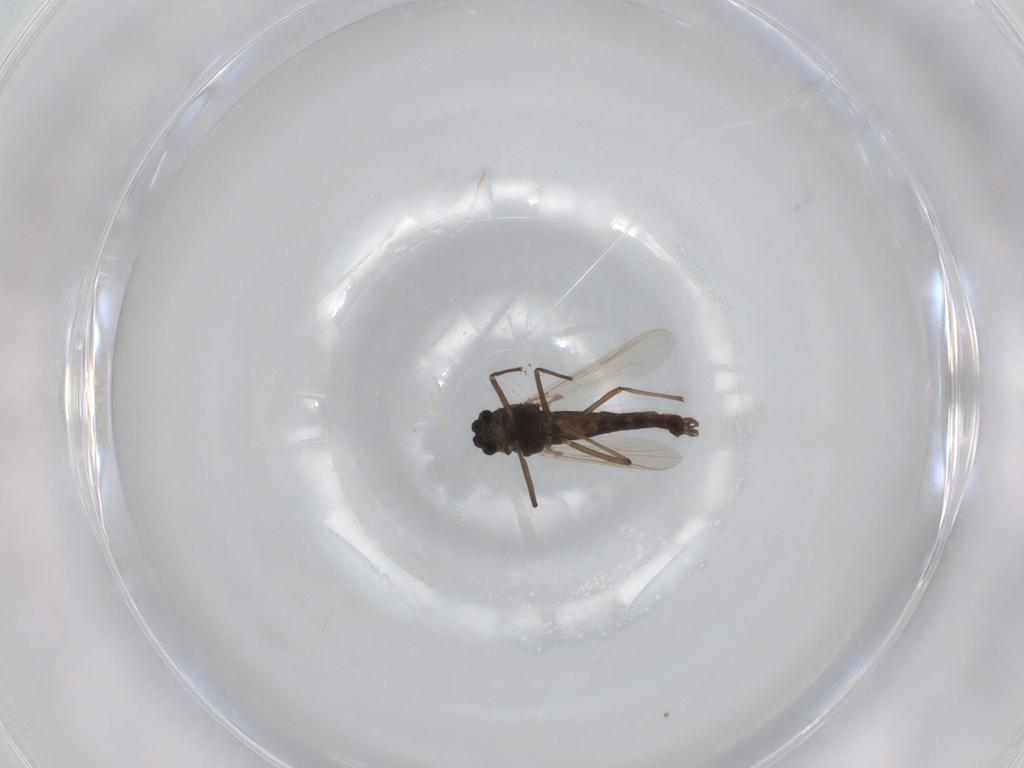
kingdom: Animalia
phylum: Arthropoda
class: Insecta
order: Diptera
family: Chironomidae
